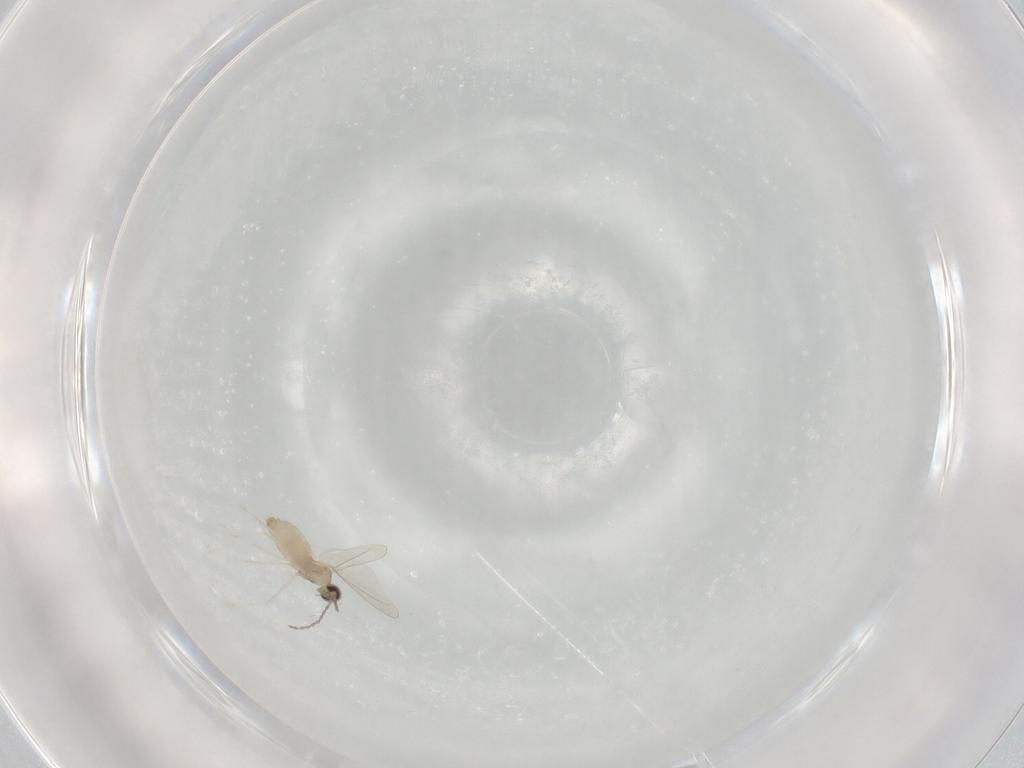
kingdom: Animalia
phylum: Arthropoda
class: Insecta
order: Diptera
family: Cecidomyiidae
